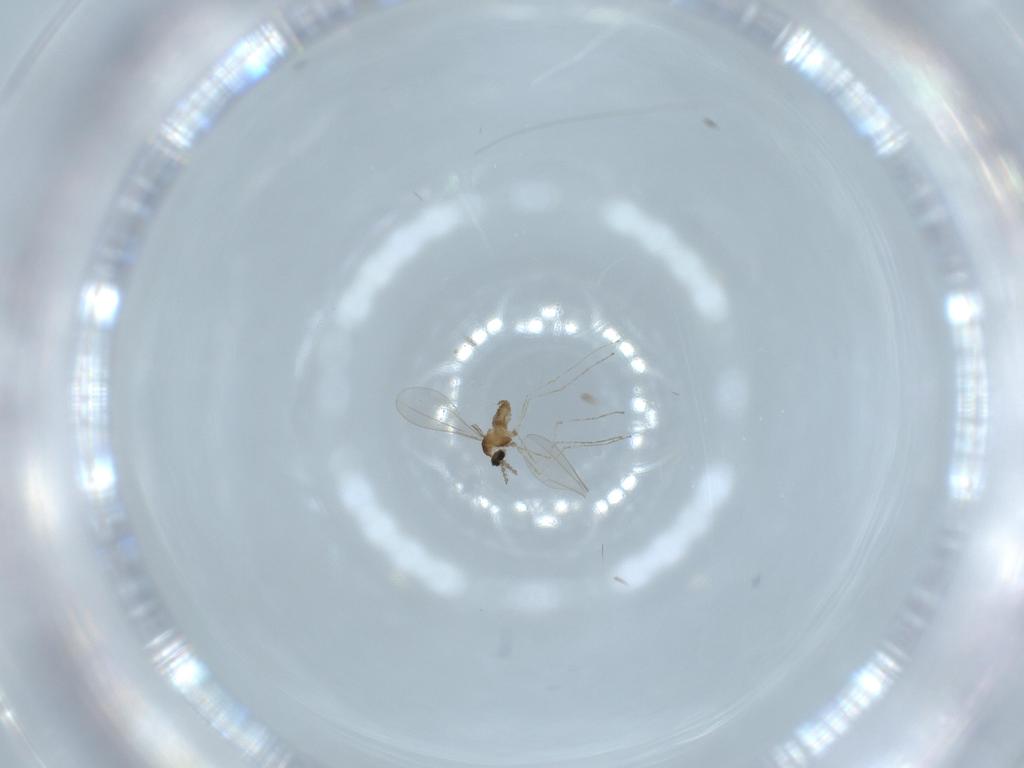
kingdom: Animalia
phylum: Arthropoda
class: Insecta
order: Diptera
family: Cecidomyiidae
